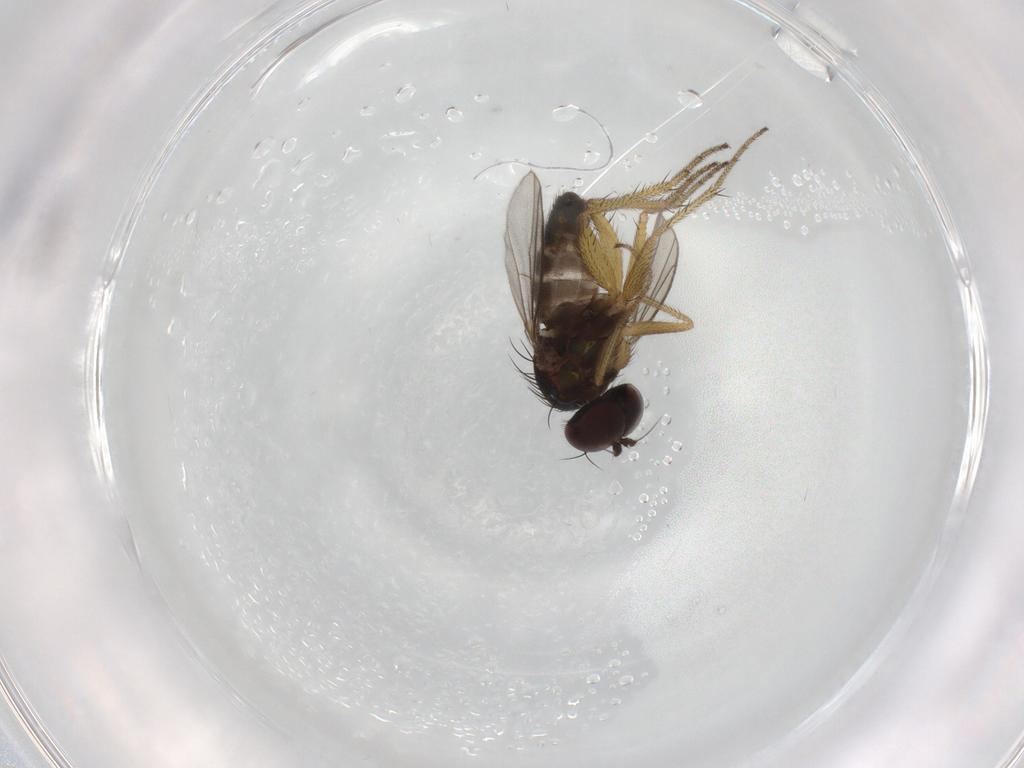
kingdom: Animalia
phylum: Arthropoda
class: Insecta
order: Diptera
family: Dolichopodidae
